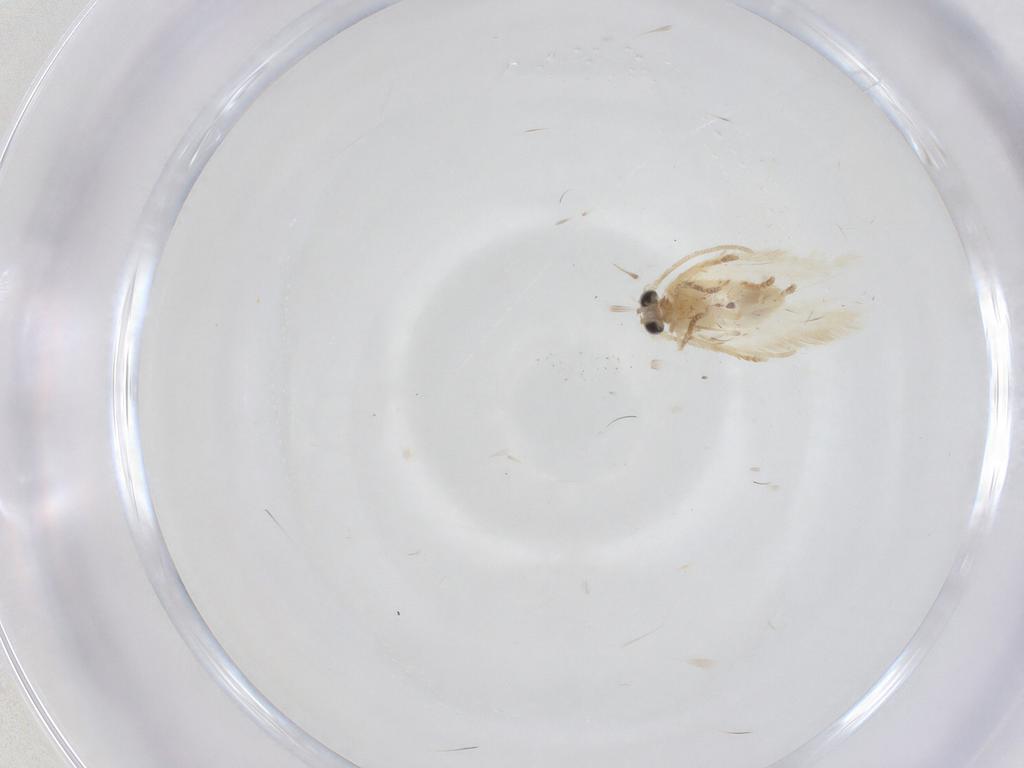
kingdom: Animalia
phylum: Arthropoda
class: Insecta
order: Lepidoptera
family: Nepticulidae
